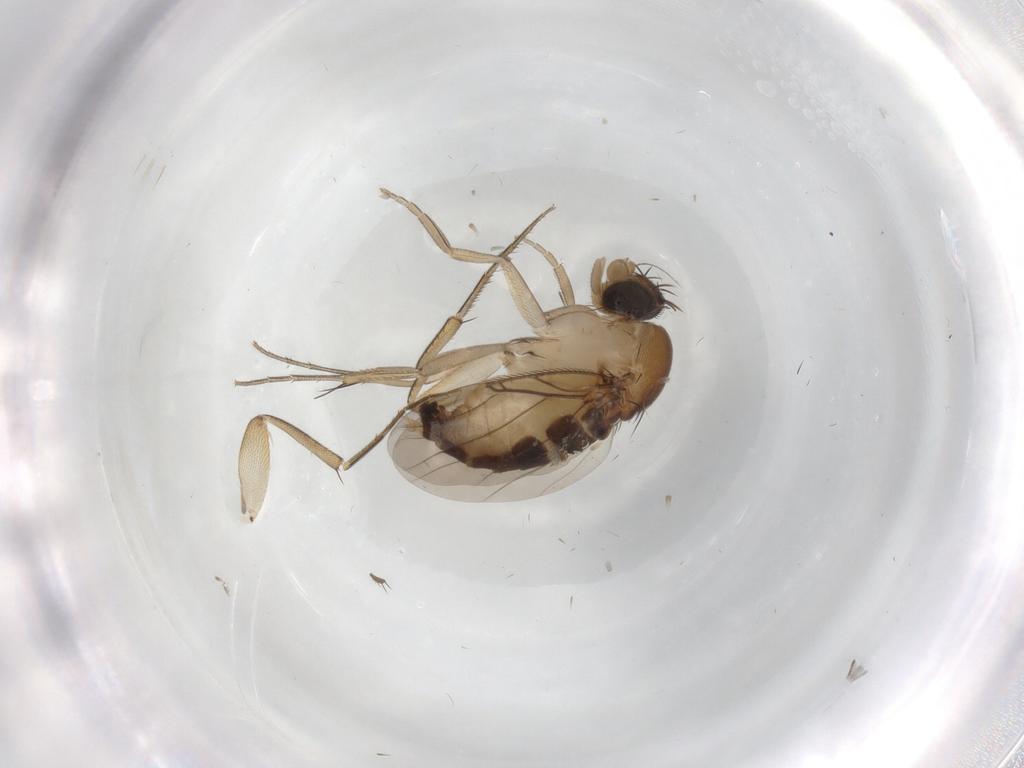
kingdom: Animalia
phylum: Arthropoda
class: Insecta
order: Diptera
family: Phoridae
